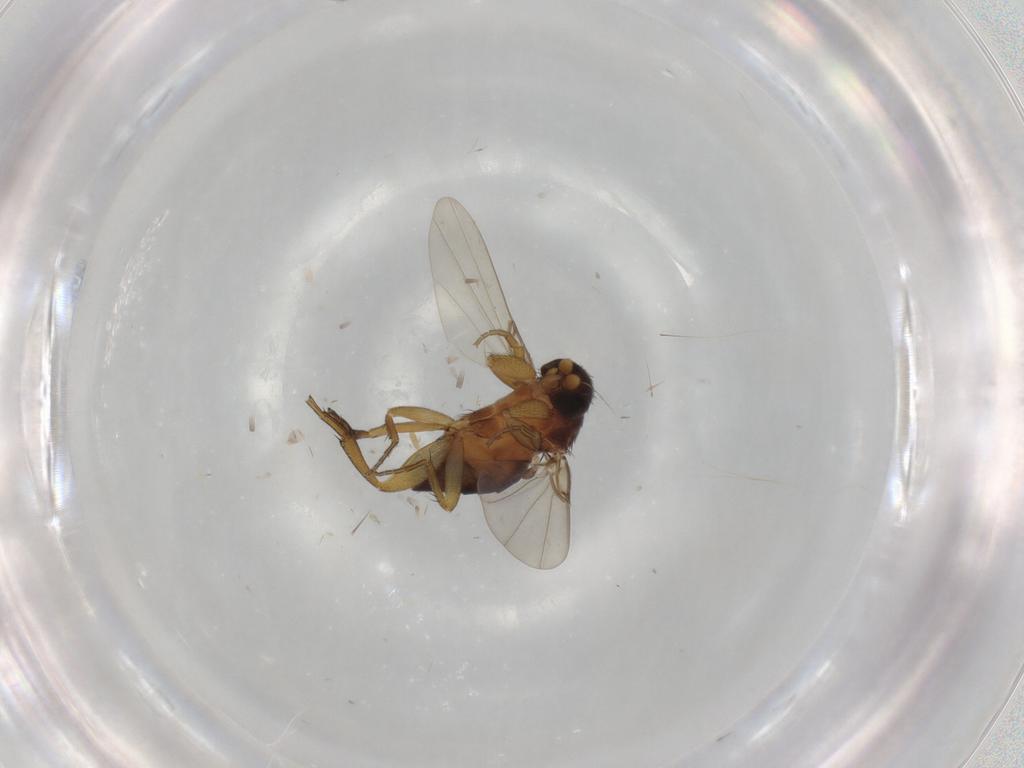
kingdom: Animalia
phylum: Arthropoda
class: Insecta
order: Diptera
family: Phoridae
